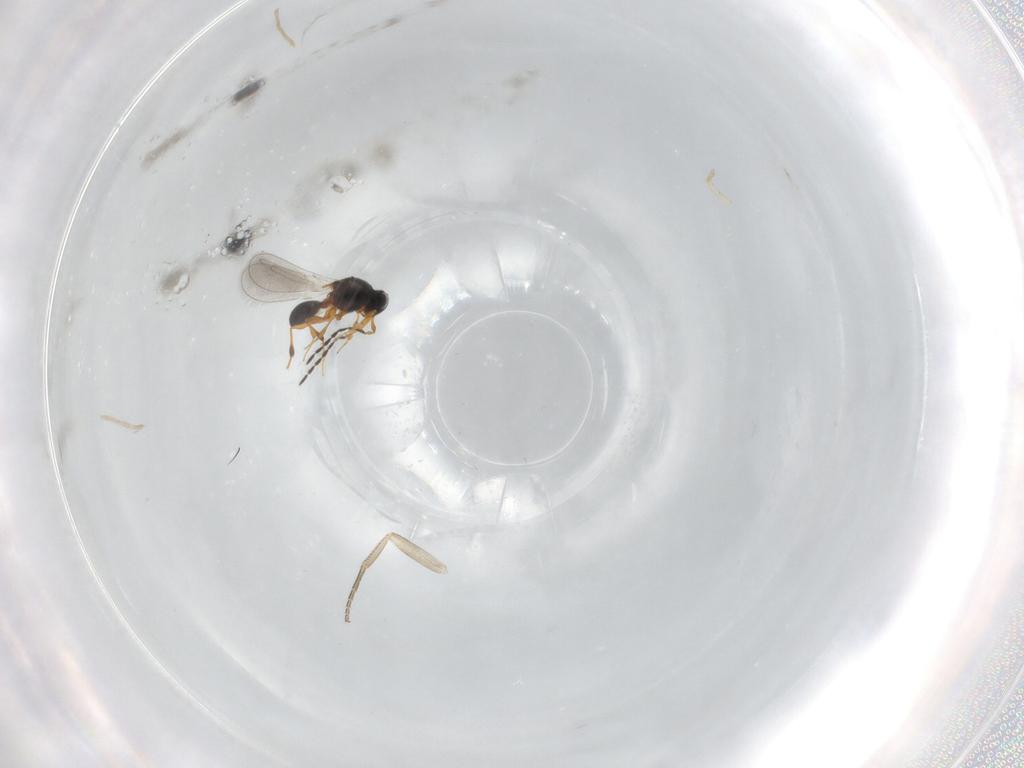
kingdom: Animalia
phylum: Arthropoda
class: Insecta
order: Hymenoptera
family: Platygastridae
